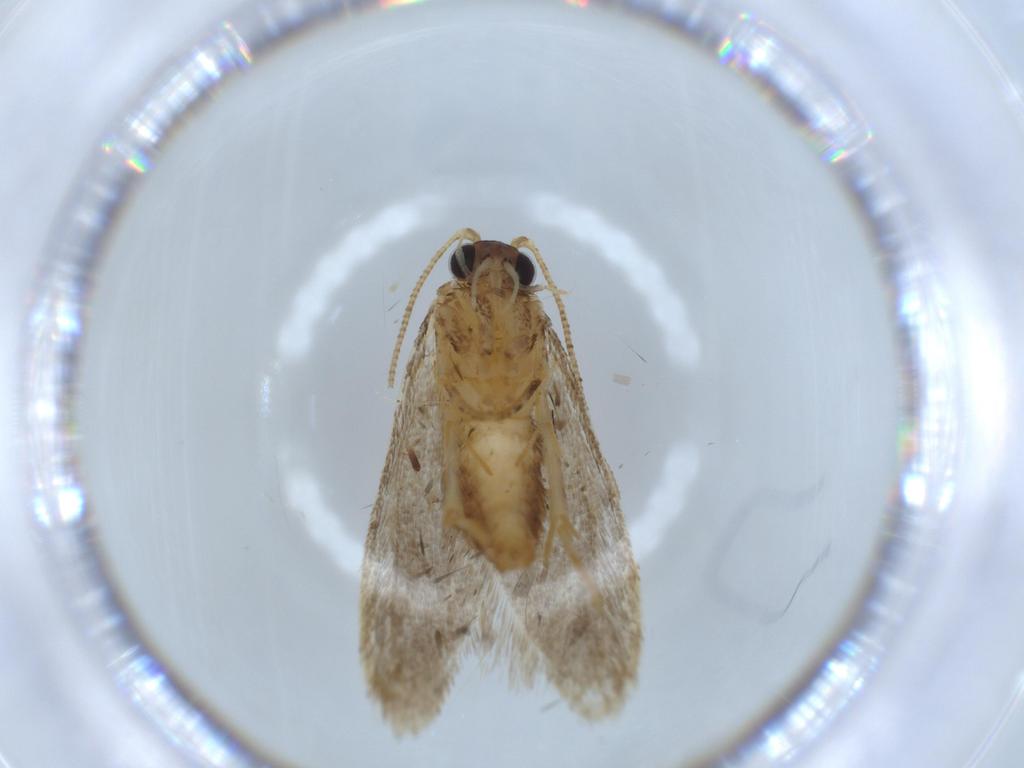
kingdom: Animalia
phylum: Arthropoda
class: Insecta
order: Lepidoptera
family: Tineidae
